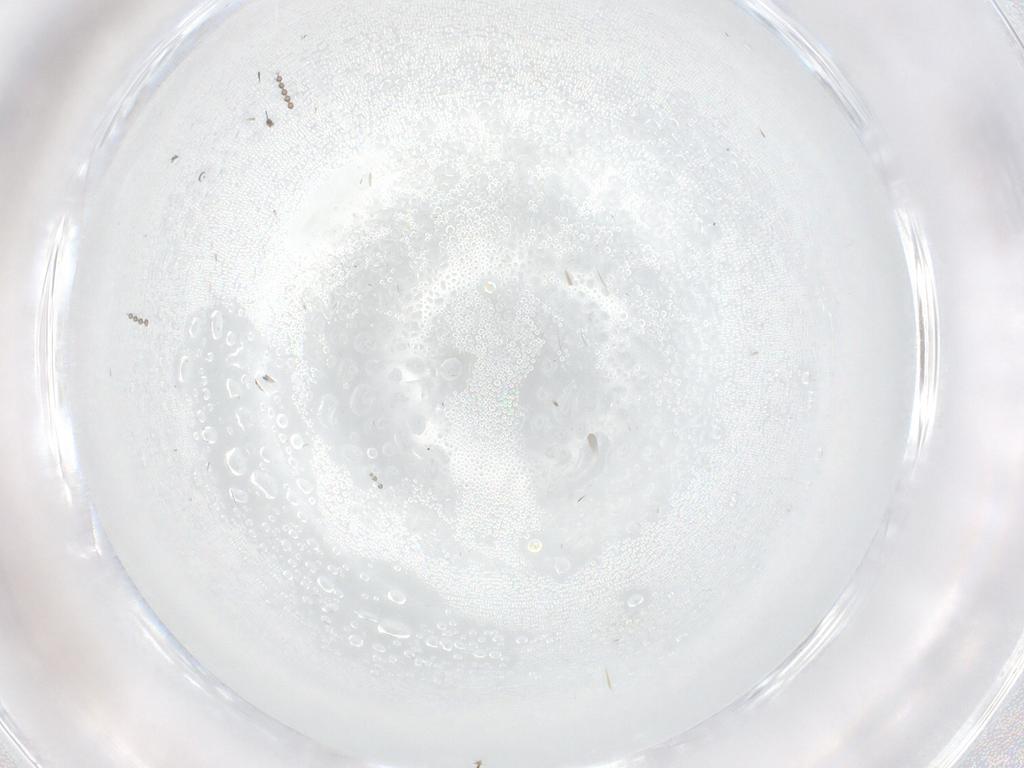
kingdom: Animalia
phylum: Arthropoda
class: Insecta
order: Diptera
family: Psychodidae
